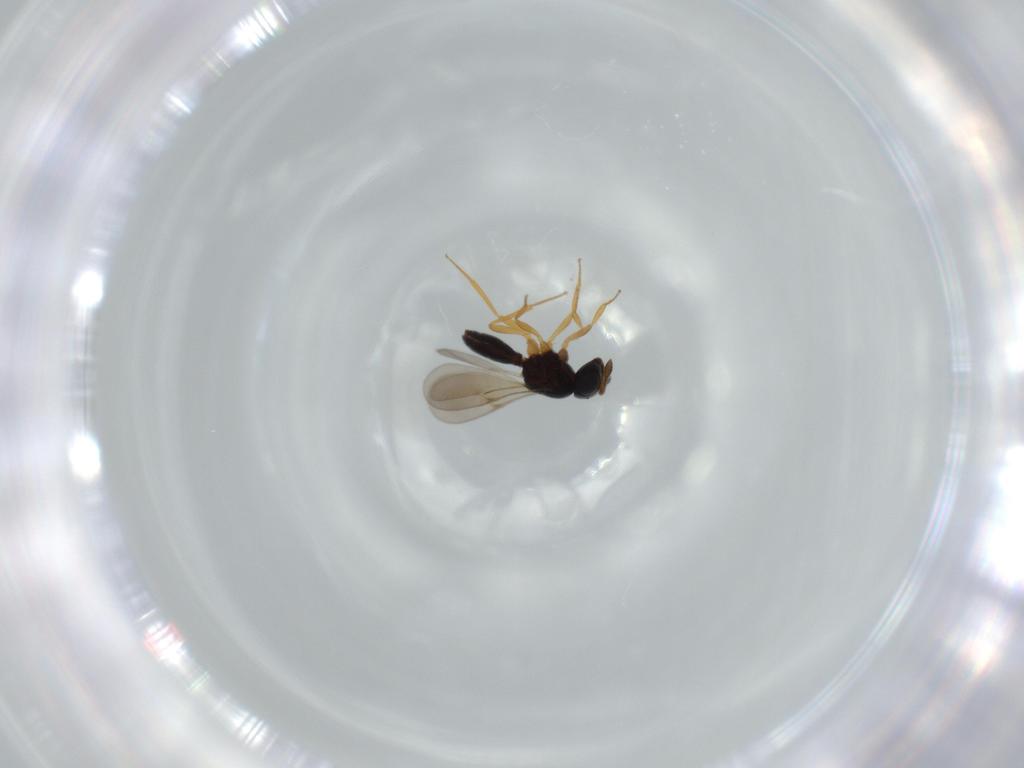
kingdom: Animalia
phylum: Arthropoda
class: Insecta
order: Hymenoptera
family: Scelionidae
